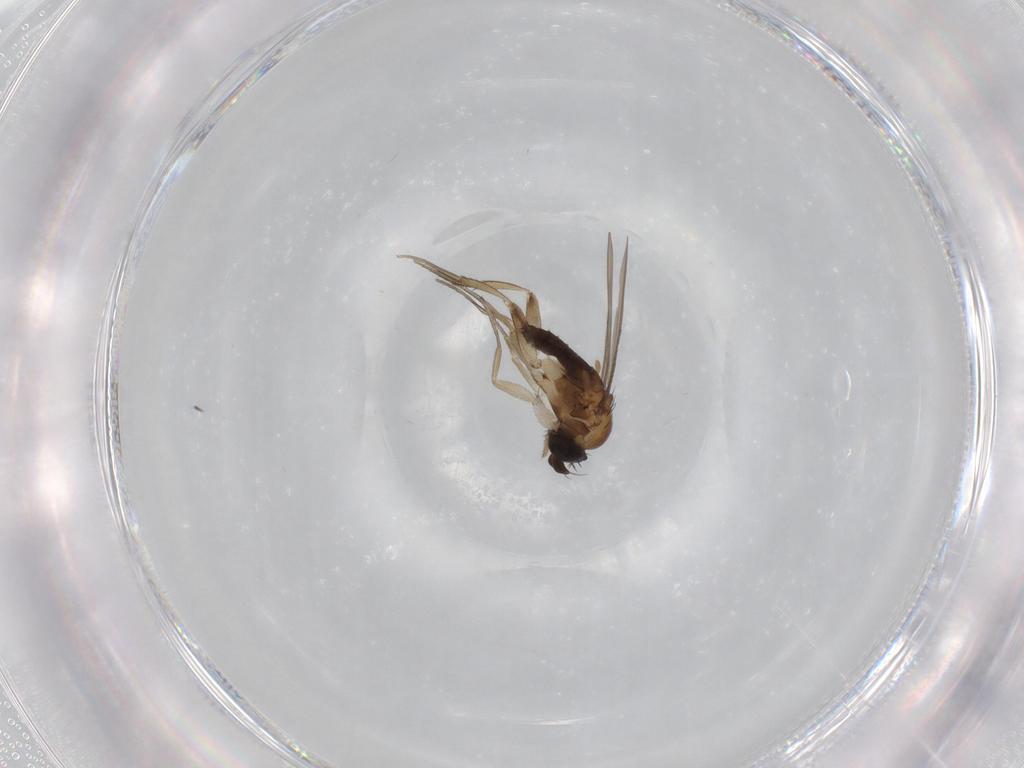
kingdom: Animalia
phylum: Arthropoda
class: Insecta
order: Diptera
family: Phoridae
